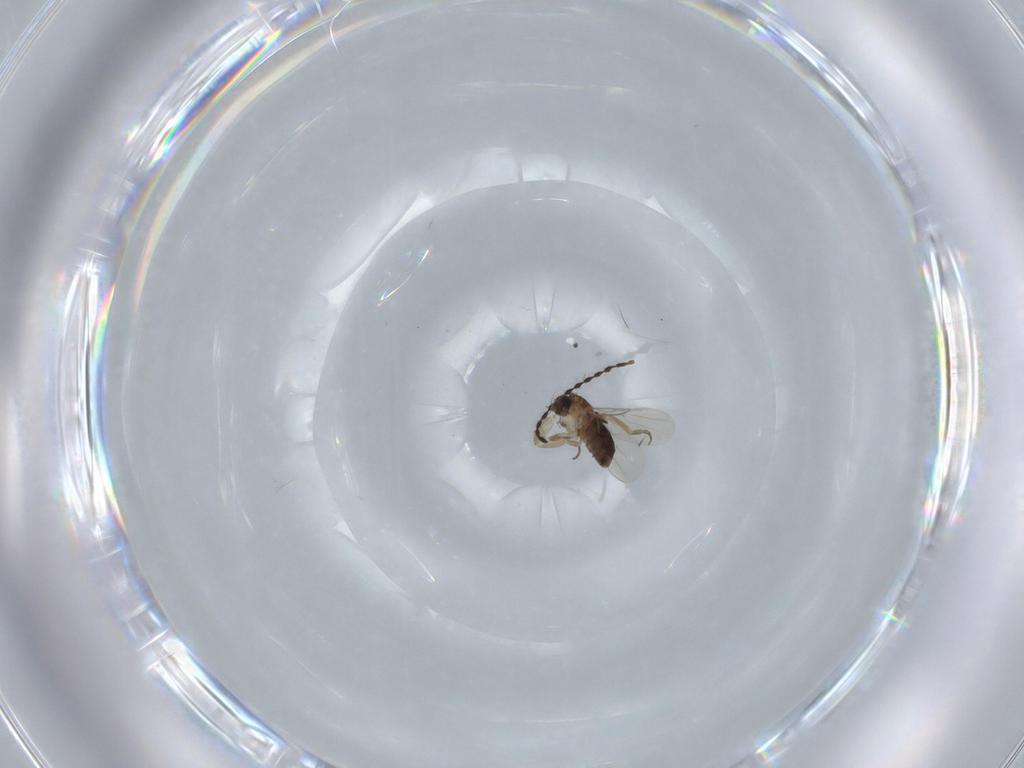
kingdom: Animalia
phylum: Arthropoda
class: Insecta
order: Diptera
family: Phoridae
